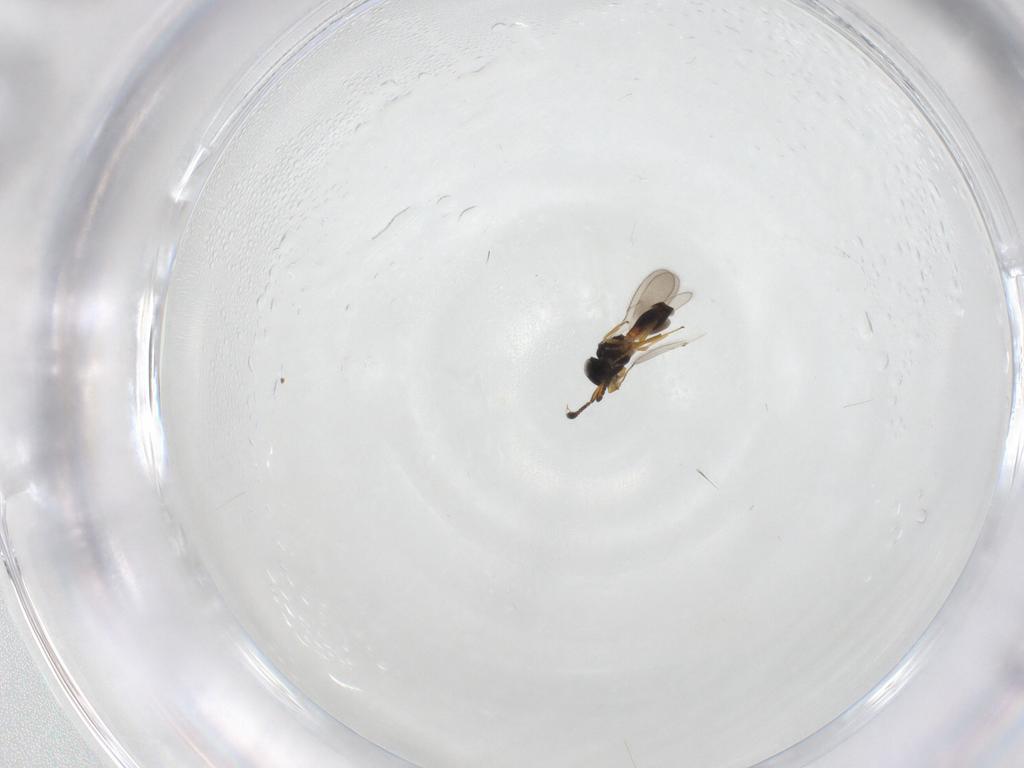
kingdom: Animalia
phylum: Arthropoda
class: Insecta
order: Hymenoptera
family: Scelionidae
